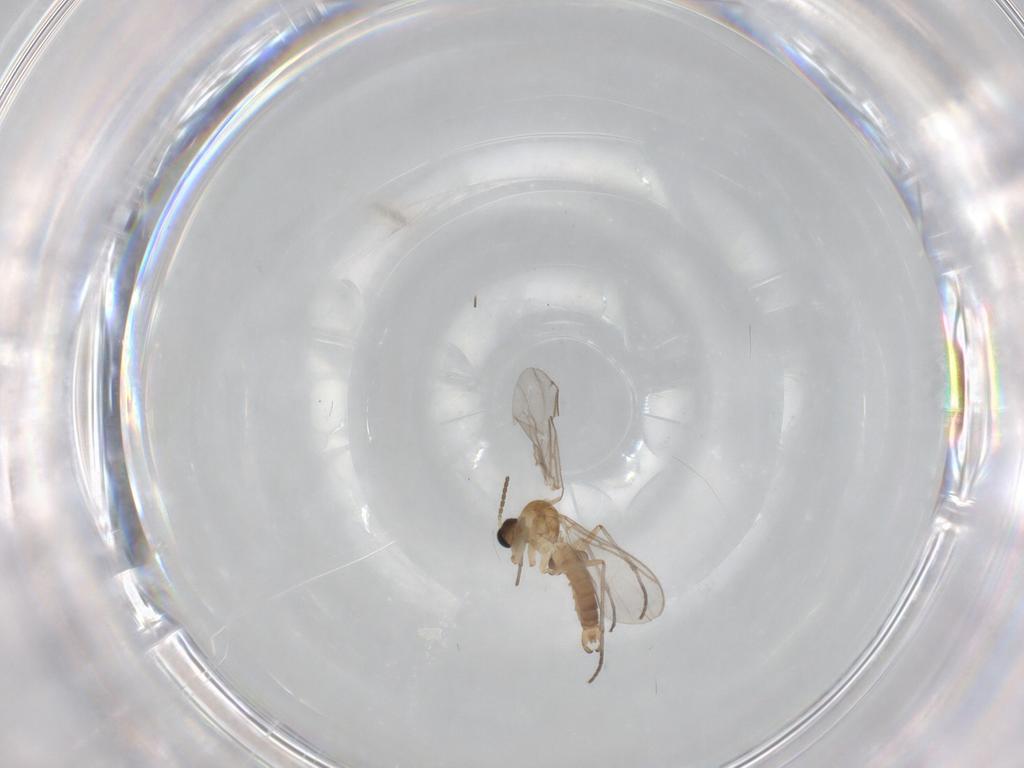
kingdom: Animalia
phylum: Arthropoda
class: Insecta
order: Diptera
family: Sciaridae
